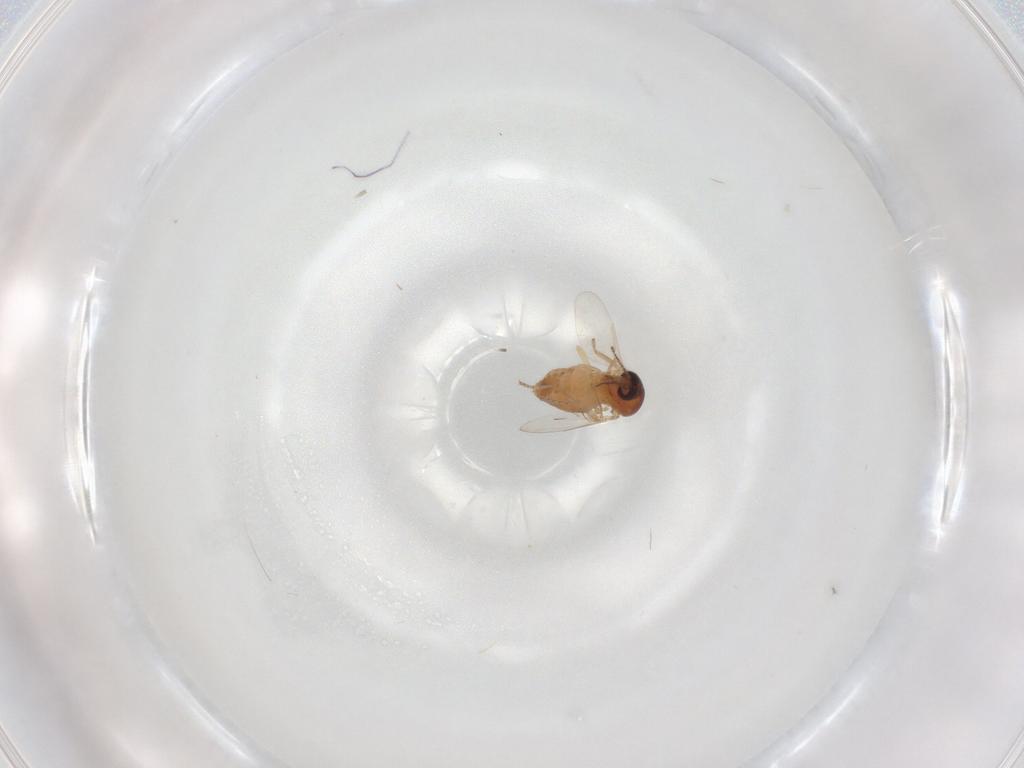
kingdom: Animalia
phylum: Arthropoda
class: Insecta
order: Diptera
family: Ceratopogonidae
